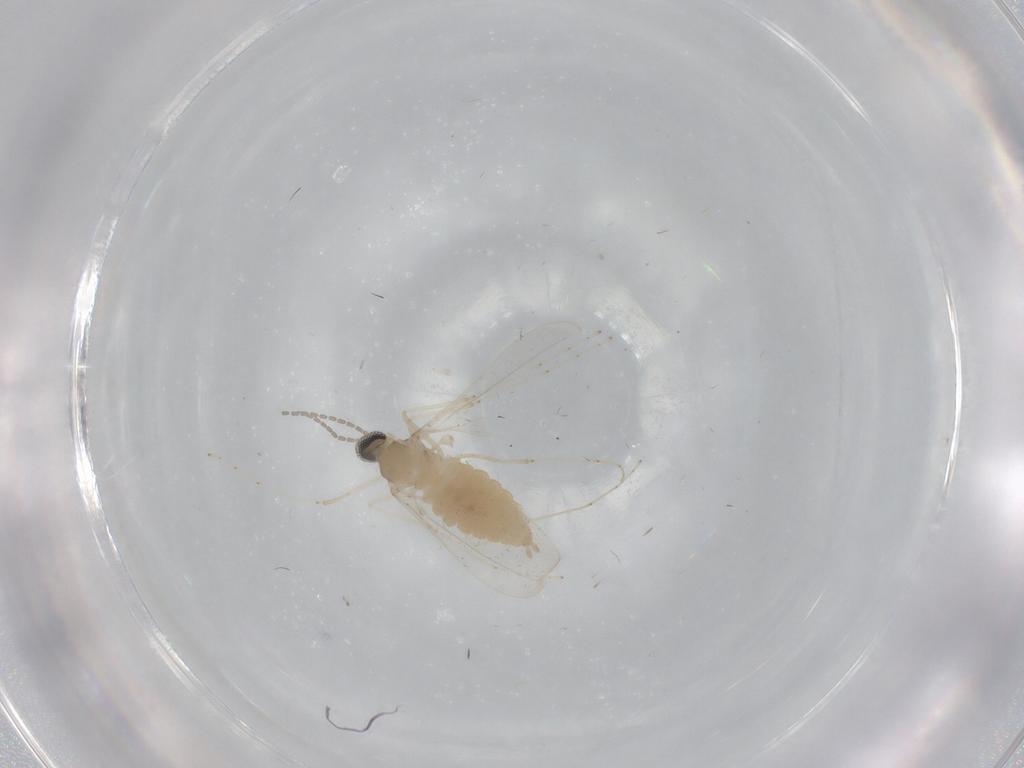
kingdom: Animalia
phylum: Arthropoda
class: Insecta
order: Diptera
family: Cecidomyiidae
